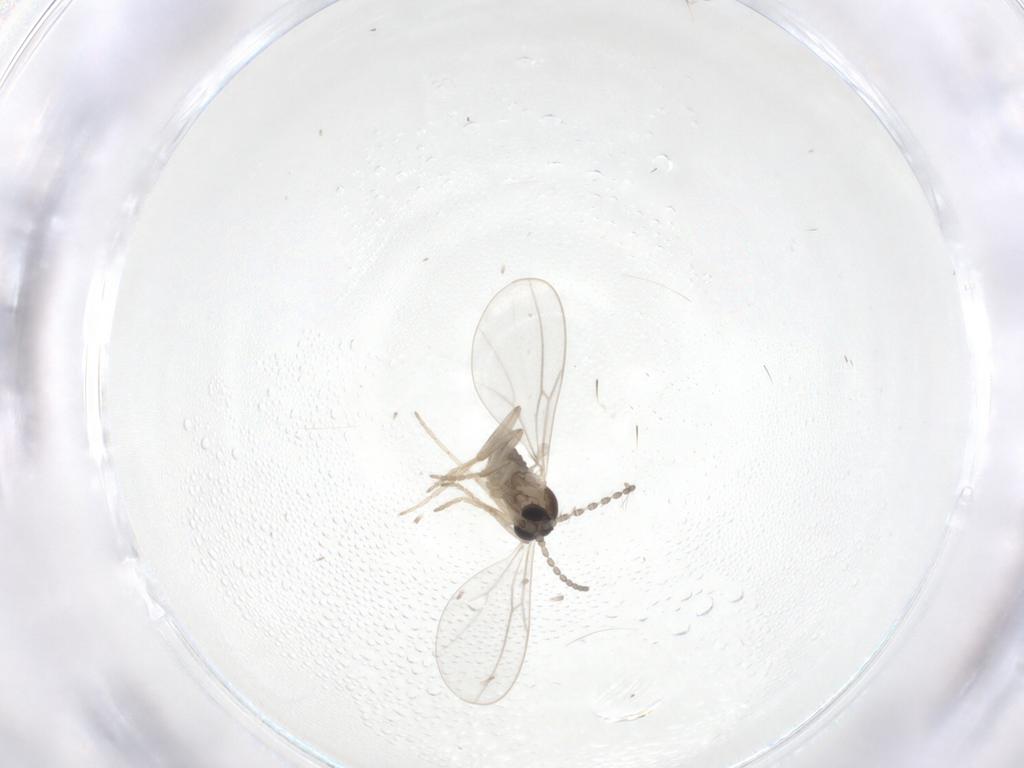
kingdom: Animalia
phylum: Arthropoda
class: Insecta
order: Diptera
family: Cecidomyiidae
